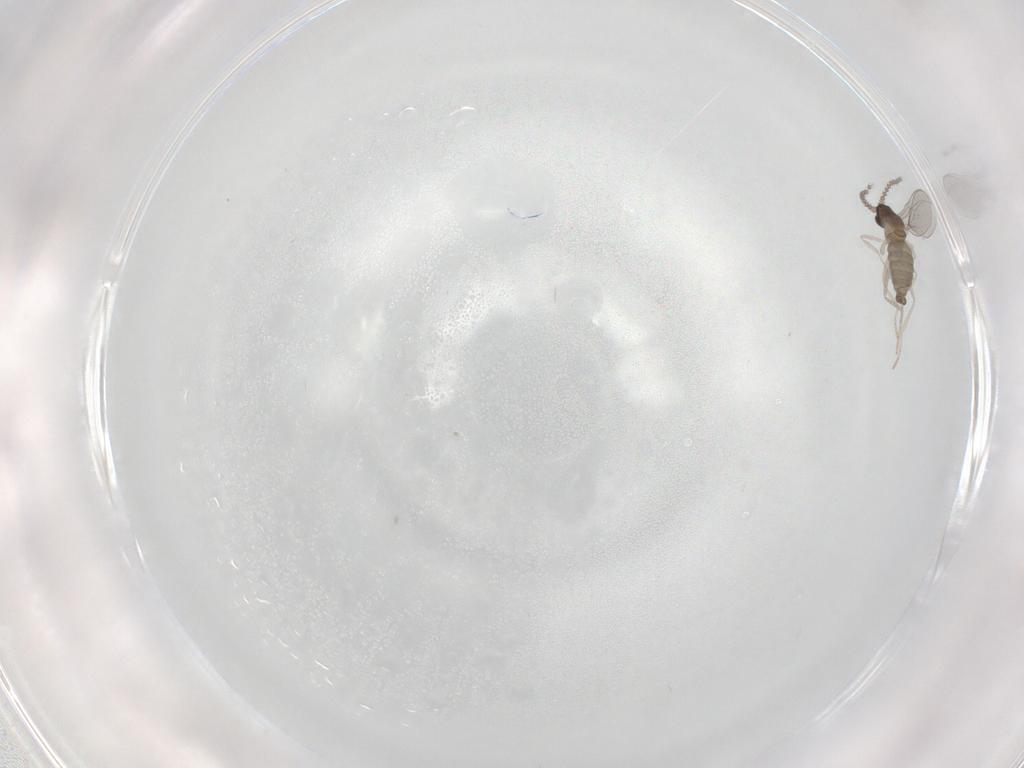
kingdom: Animalia
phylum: Arthropoda
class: Insecta
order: Diptera
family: Cecidomyiidae
